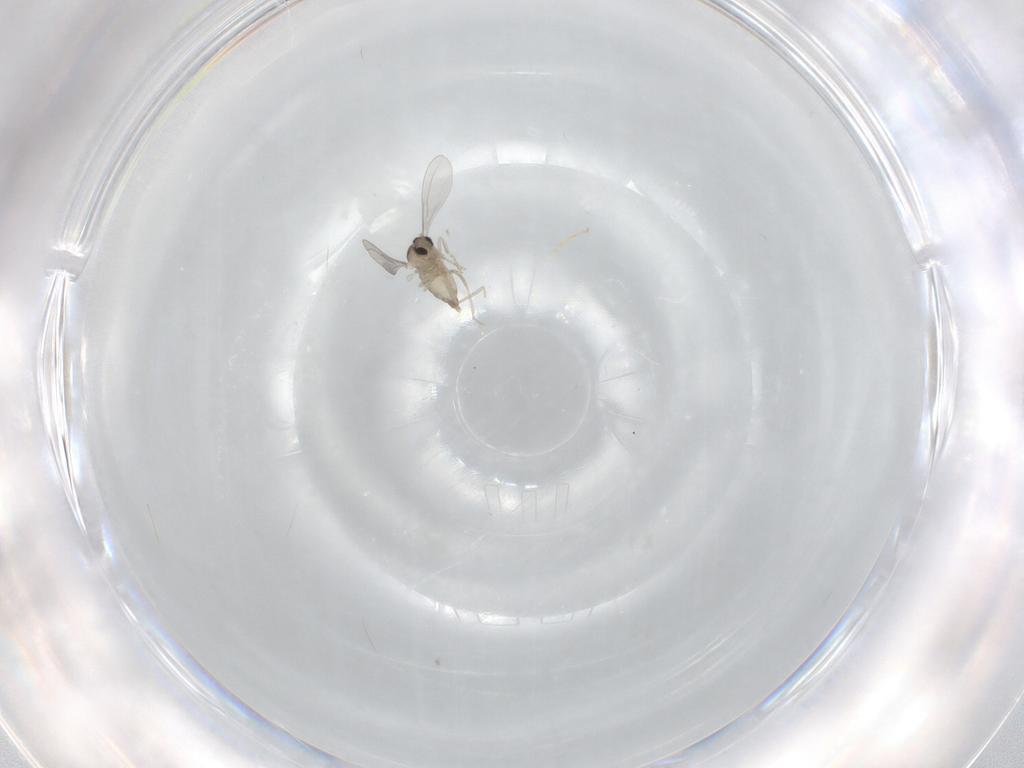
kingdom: Animalia
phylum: Arthropoda
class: Insecta
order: Diptera
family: Cecidomyiidae
